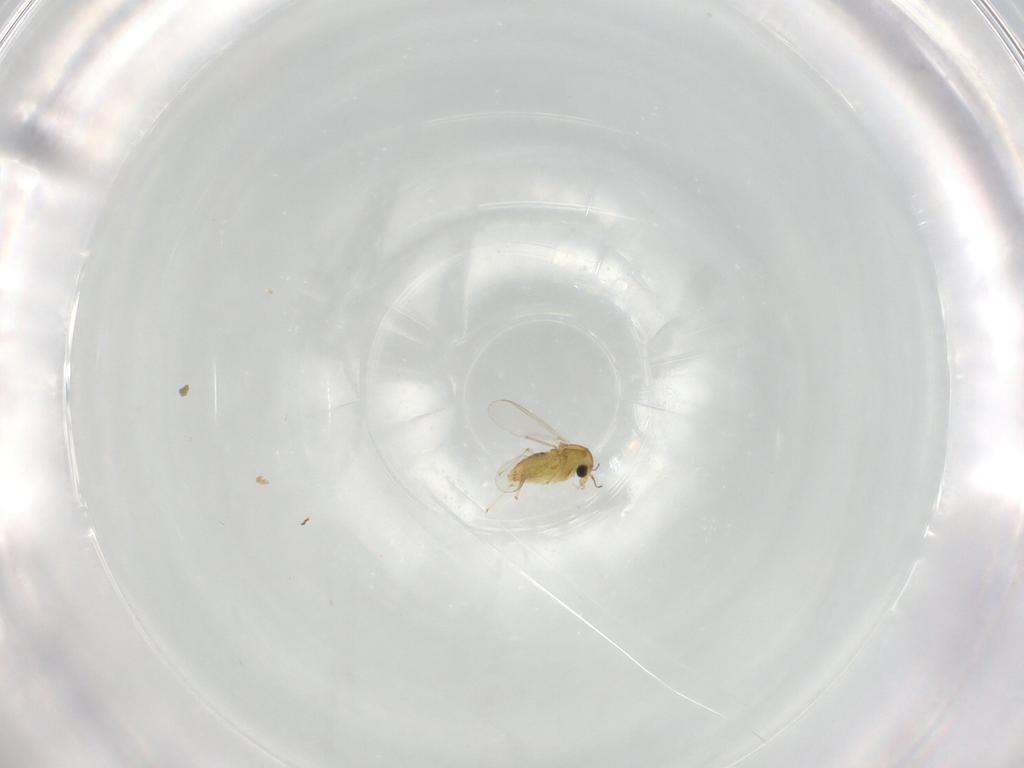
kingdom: Animalia
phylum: Arthropoda
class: Insecta
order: Diptera
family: Chironomidae
